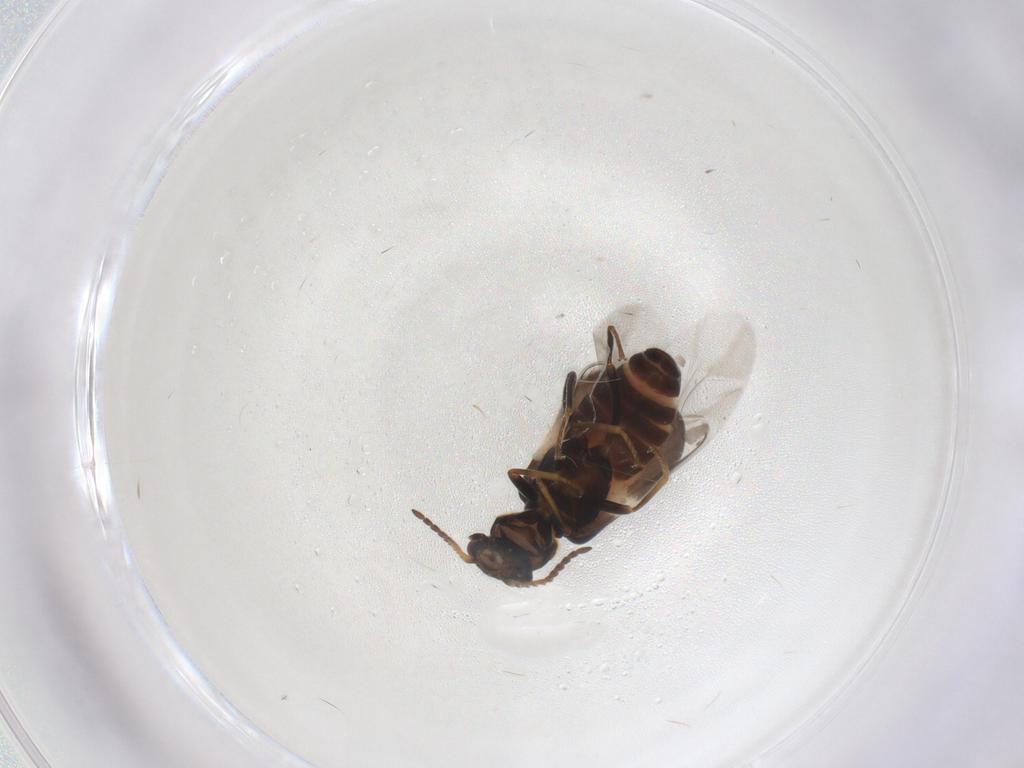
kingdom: Animalia
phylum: Arthropoda
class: Insecta
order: Coleoptera
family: Melyridae
